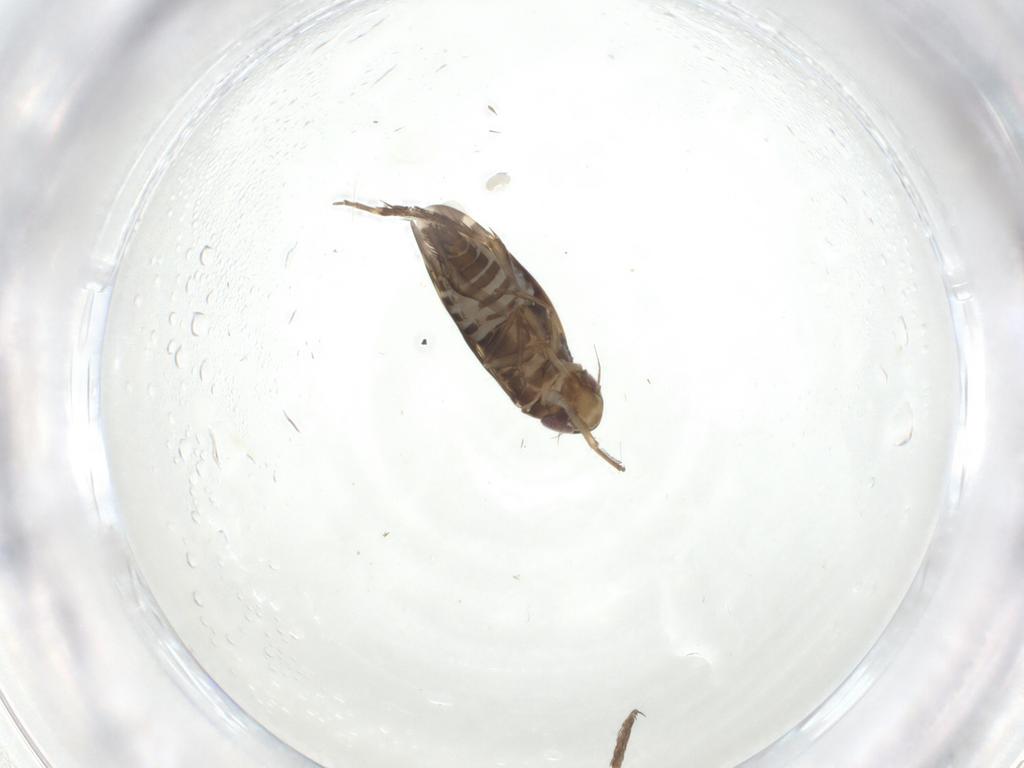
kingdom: Animalia
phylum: Arthropoda
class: Insecta
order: Hemiptera
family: Cicadellidae
